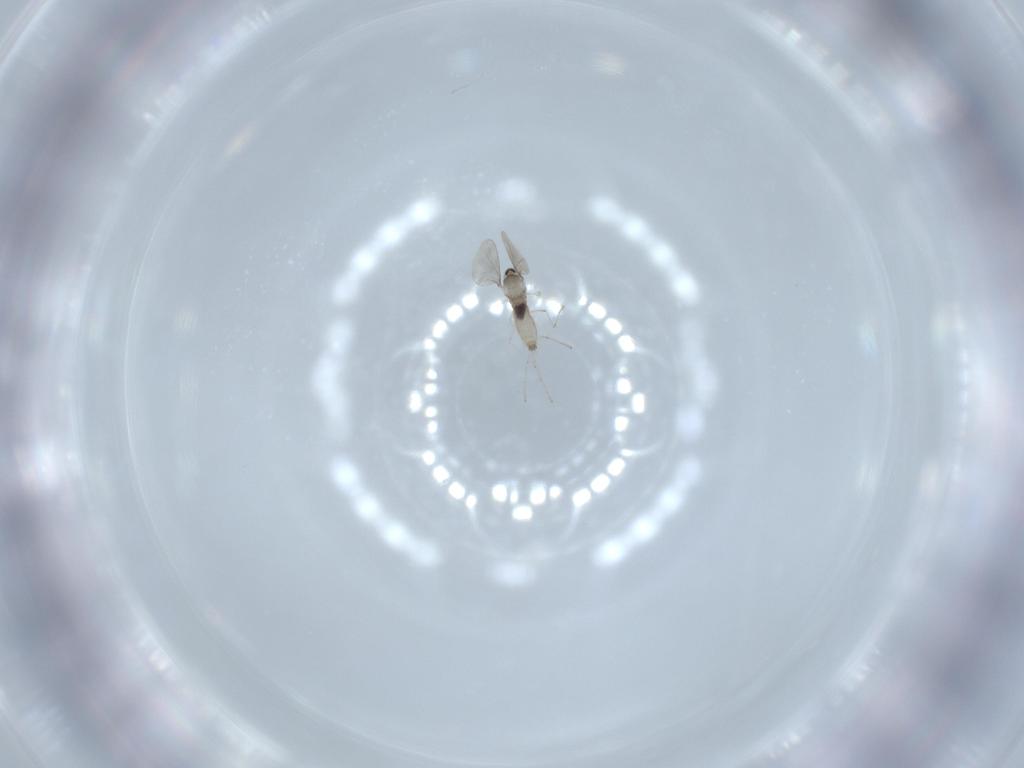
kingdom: Animalia
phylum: Arthropoda
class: Insecta
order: Diptera
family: Cecidomyiidae
